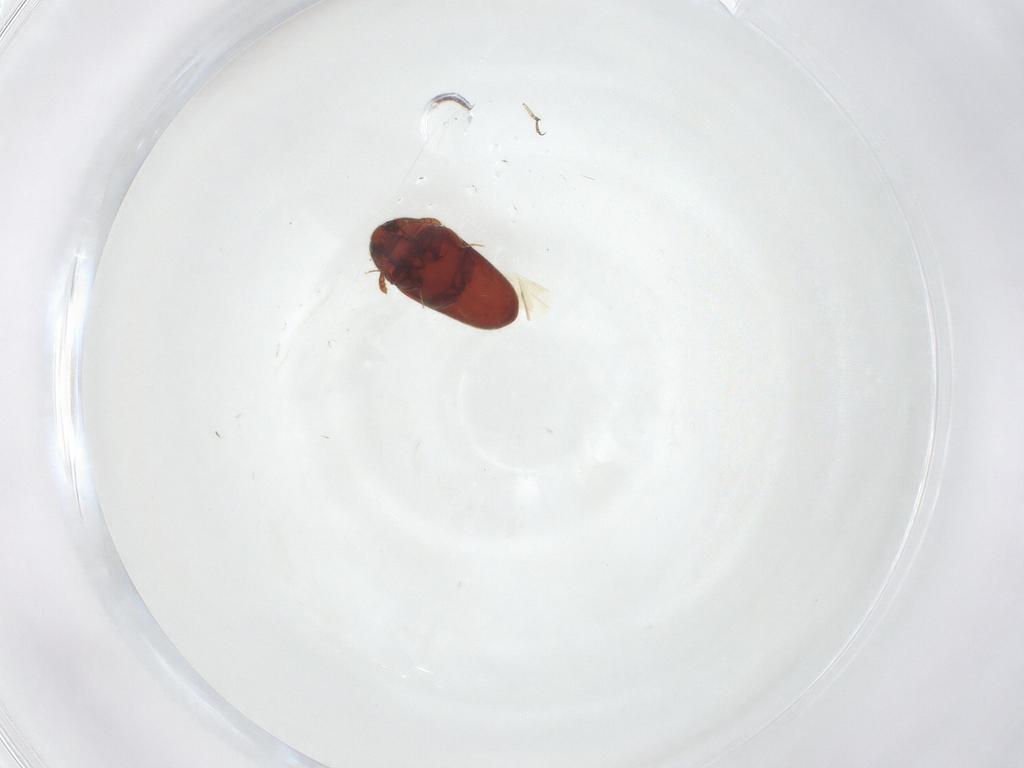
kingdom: Animalia
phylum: Arthropoda
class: Insecta
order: Coleoptera
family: Throscidae
